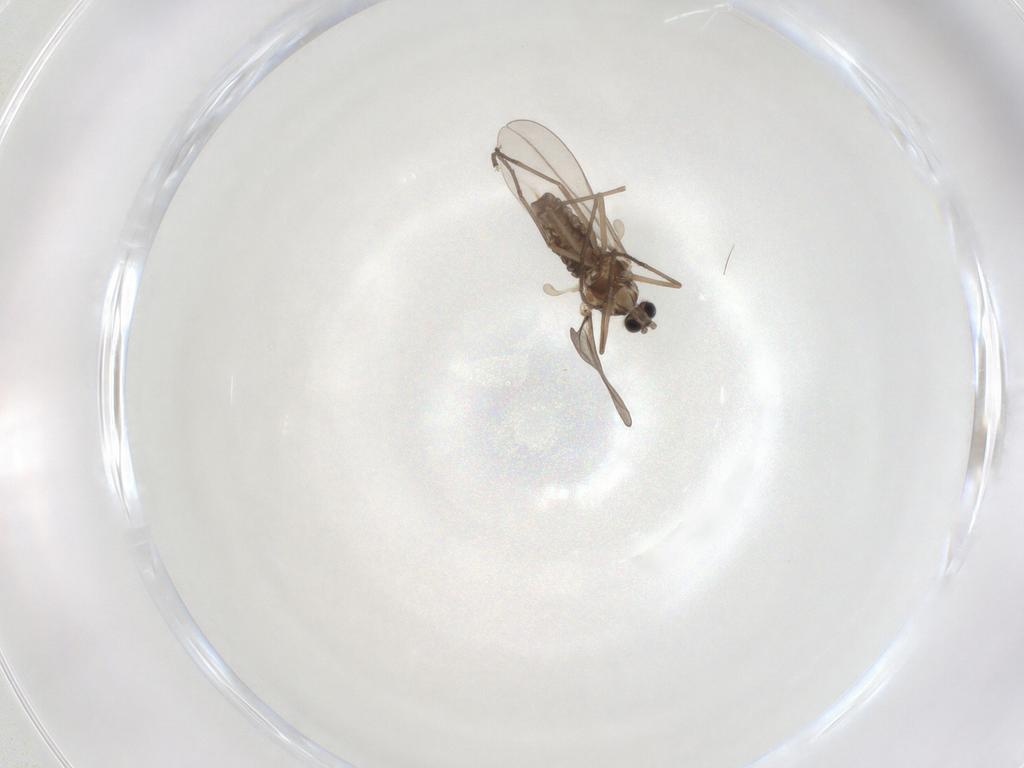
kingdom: Animalia
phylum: Arthropoda
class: Insecta
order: Diptera
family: Cecidomyiidae
